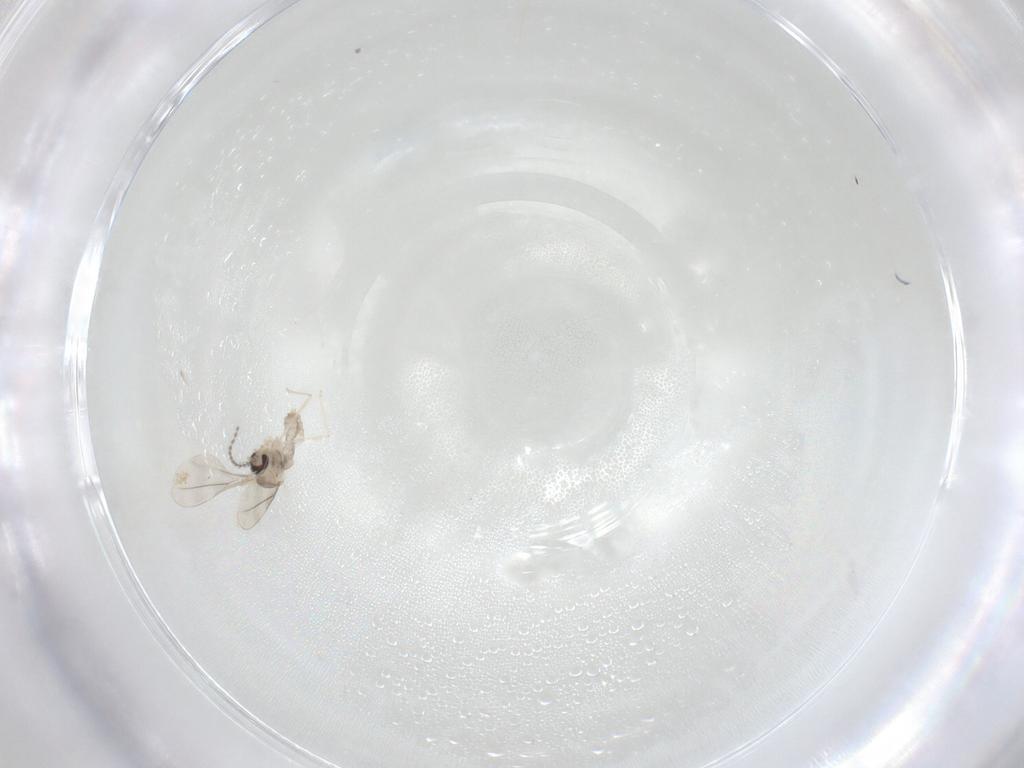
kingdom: Animalia
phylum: Arthropoda
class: Insecta
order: Diptera
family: Cecidomyiidae
